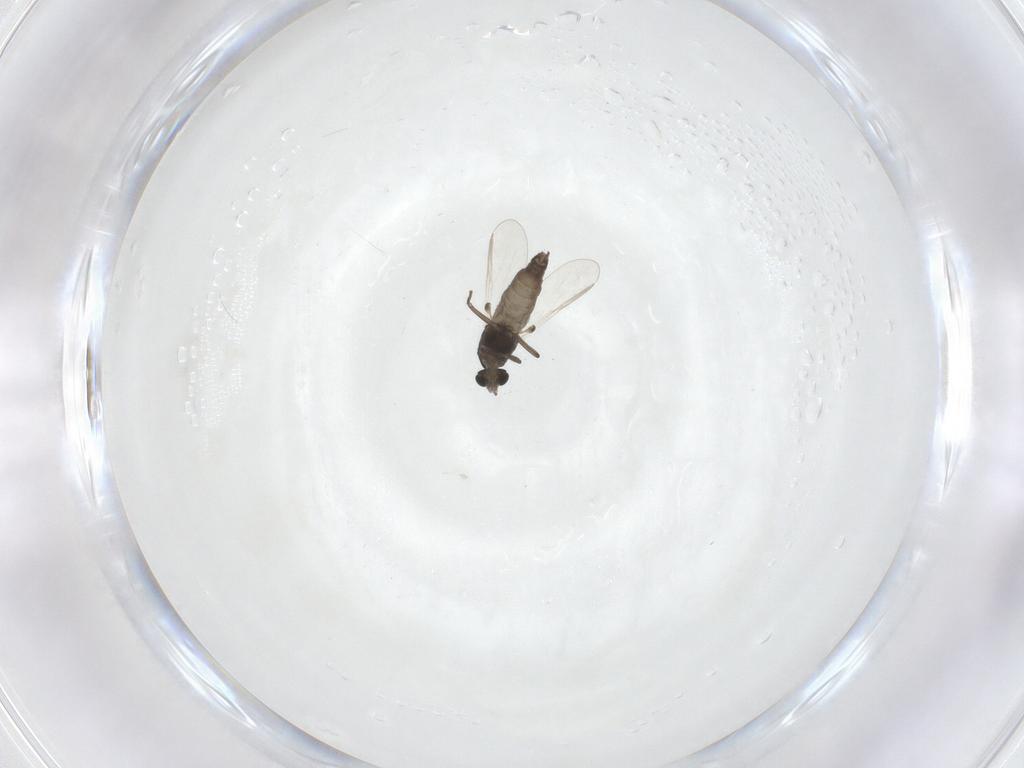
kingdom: Animalia
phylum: Arthropoda
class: Insecta
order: Diptera
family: Chironomidae
